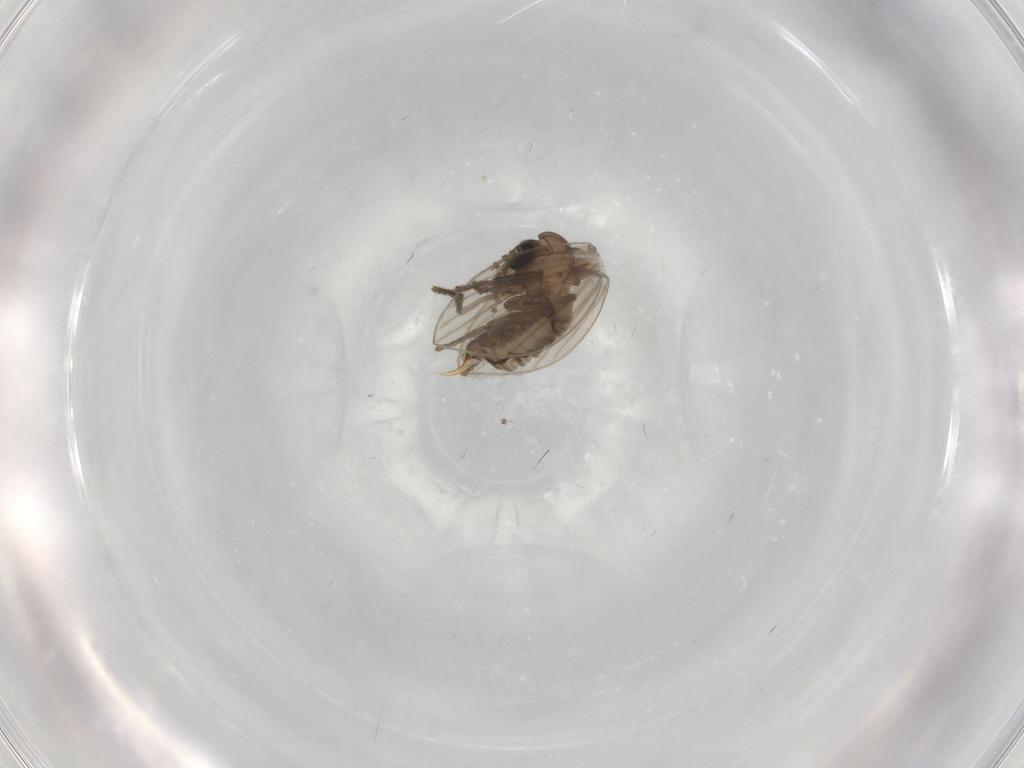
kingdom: Animalia
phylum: Arthropoda
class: Insecta
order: Diptera
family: Psychodidae
